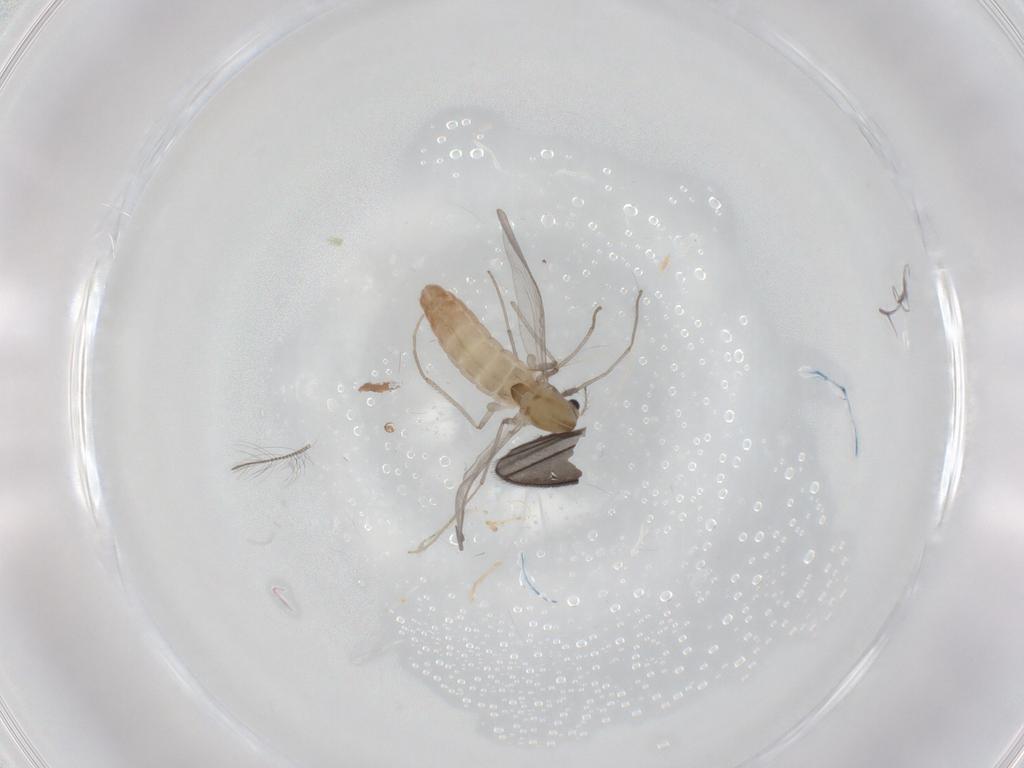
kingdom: Animalia
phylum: Arthropoda
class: Insecta
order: Diptera
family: Chironomidae
